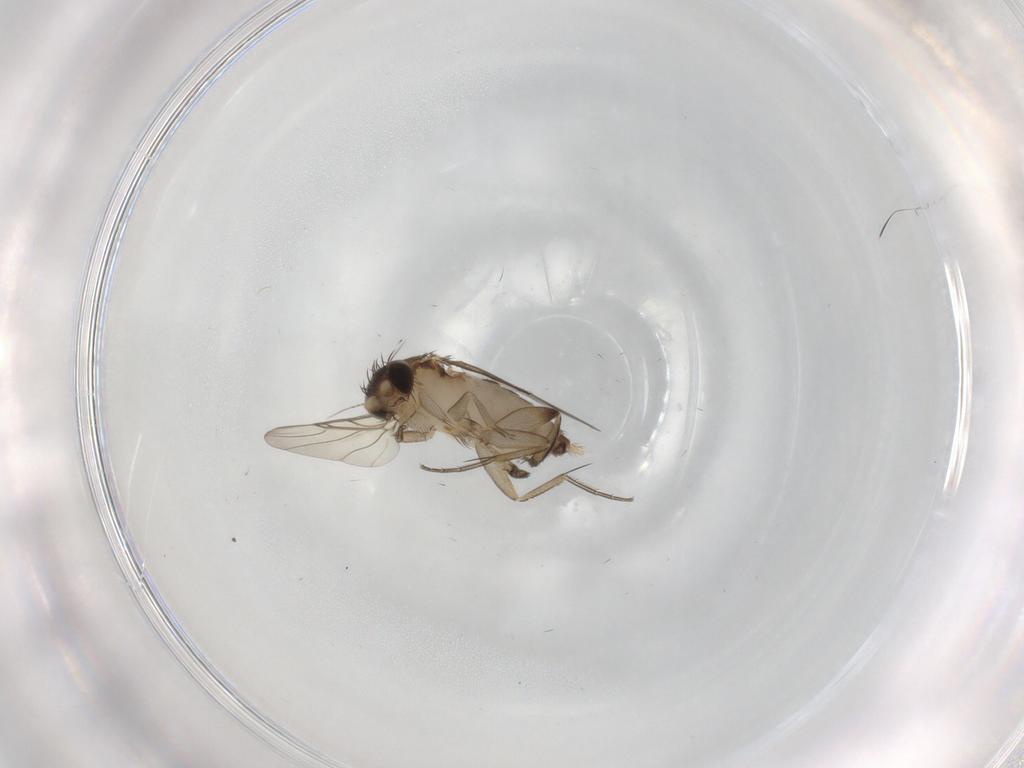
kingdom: Animalia
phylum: Arthropoda
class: Insecta
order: Diptera
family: Phoridae
